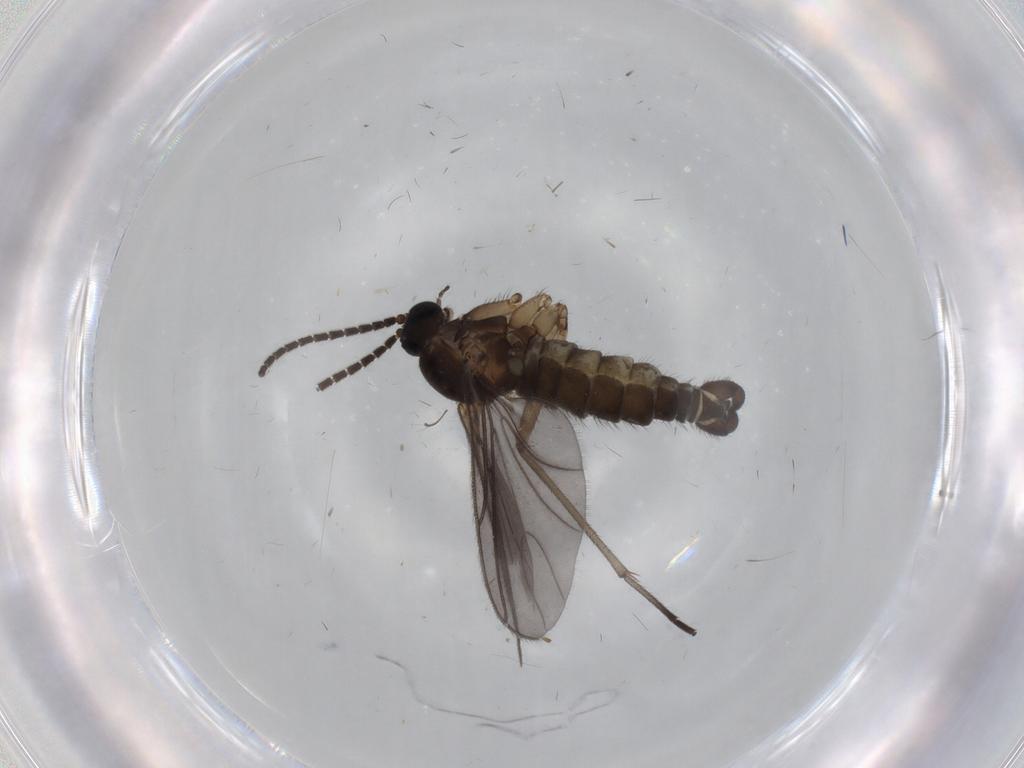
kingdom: Animalia
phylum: Arthropoda
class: Insecta
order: Diptera
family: Sciaridae
